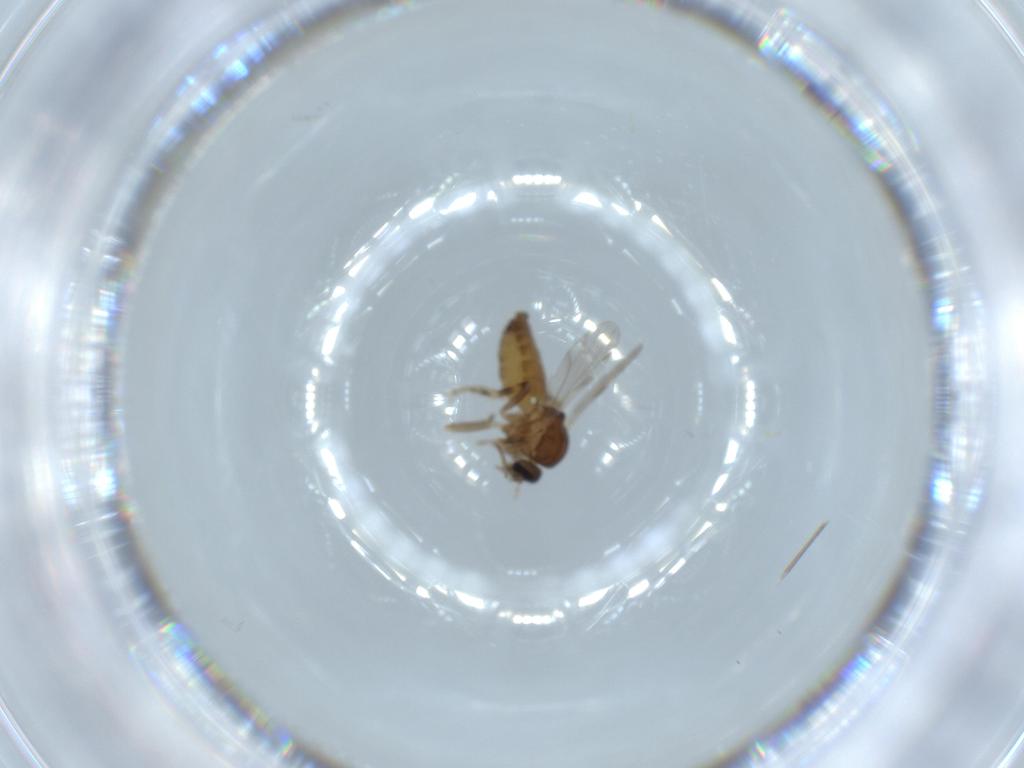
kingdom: Animalia
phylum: Arthropoda
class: Insecta
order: Diptera
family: Ceratopogonidae
